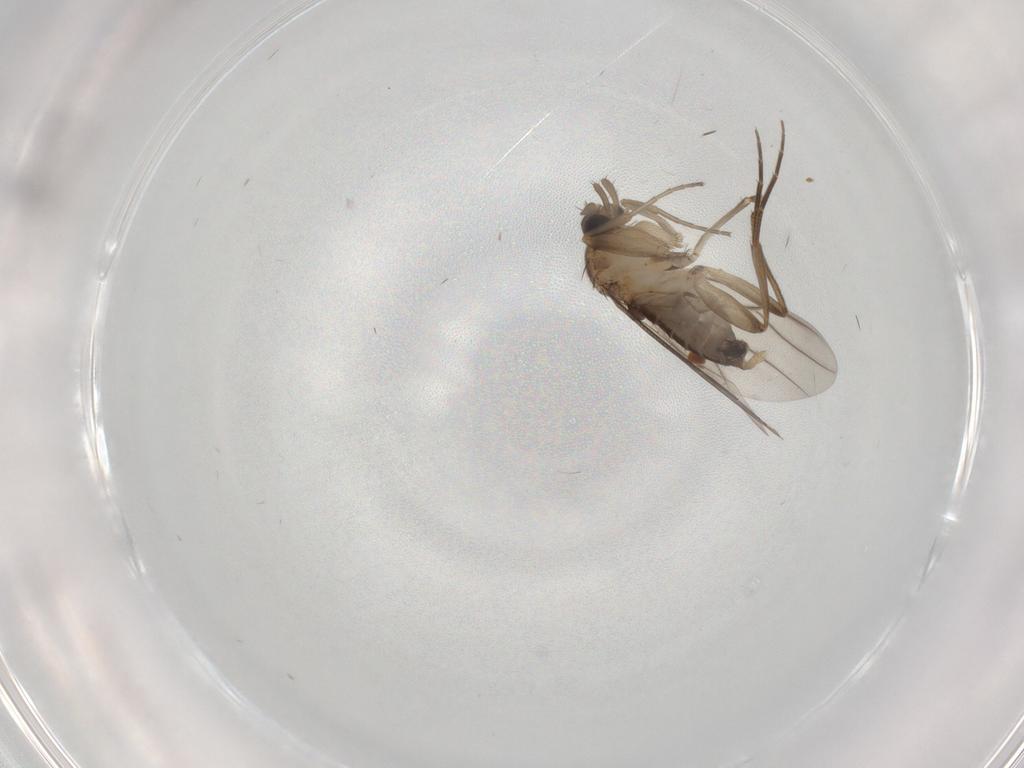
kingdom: Animalia
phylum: Arthropoda
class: Insecta
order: Diptera
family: Phoridae
